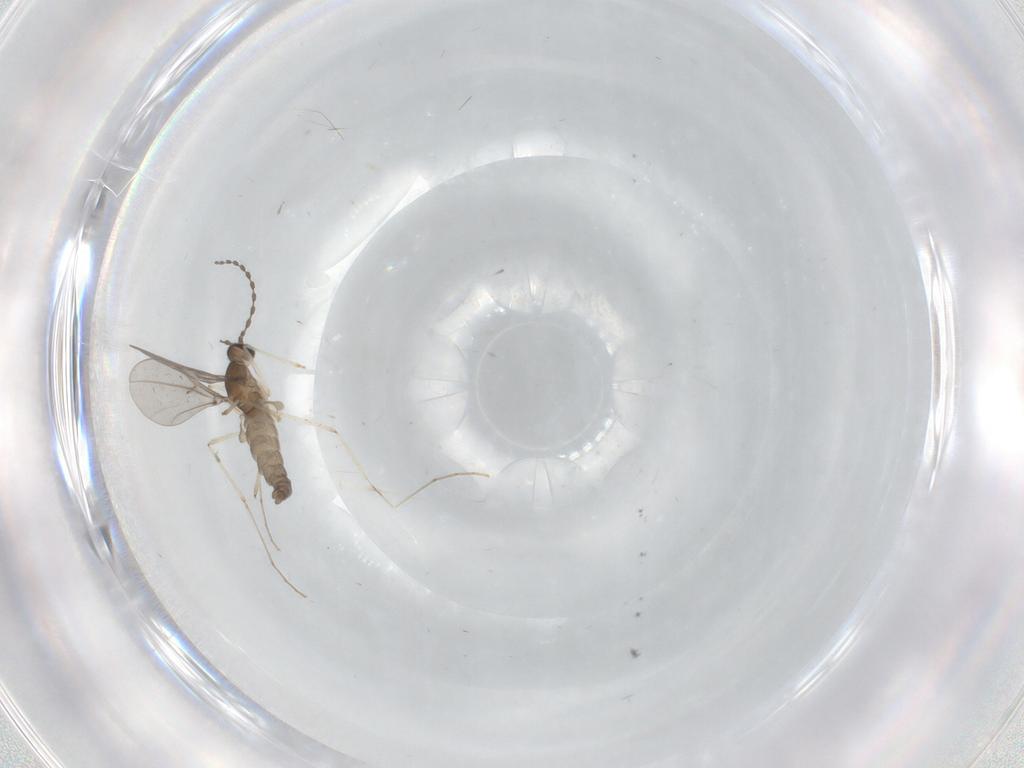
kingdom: Animalia
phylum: Arthropoda
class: Insecta
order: Diptera
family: Cecidomyiidae
